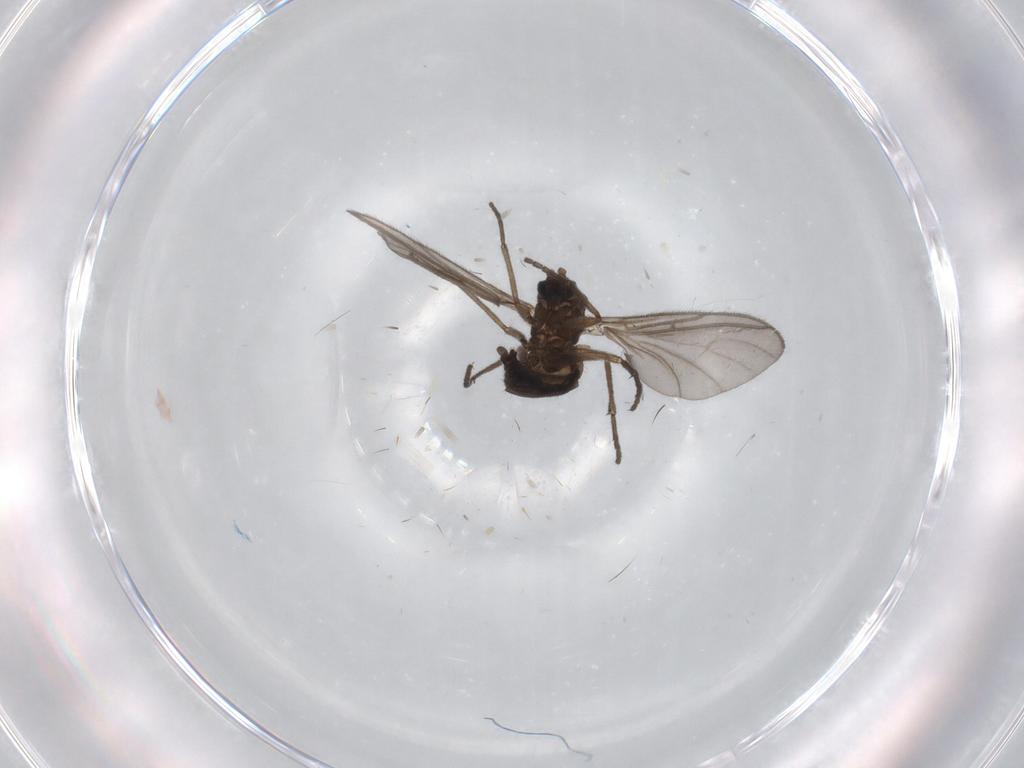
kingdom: Animalia
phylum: Arthropoda
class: Insecta
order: Diptera
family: Sciaridae
